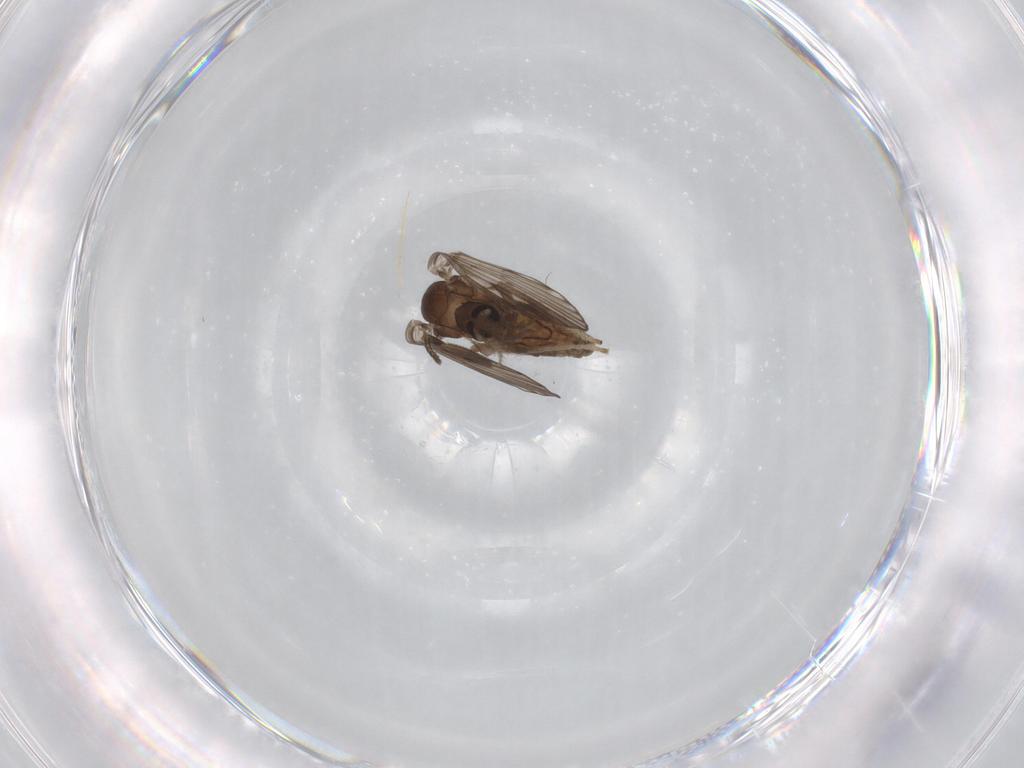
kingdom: Animalia
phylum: Arthropoda
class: Insecta
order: Diptera
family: Psychodidae
